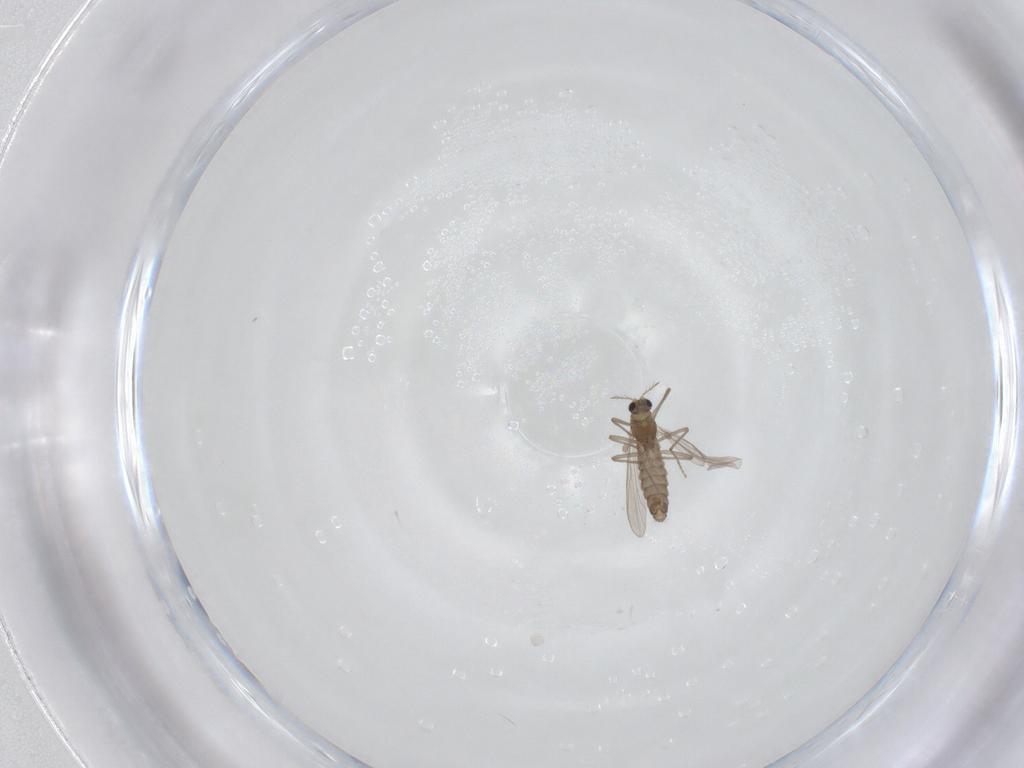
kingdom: Animalia
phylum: Arthropoda
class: Insecta
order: Diptera
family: Chironomidae
